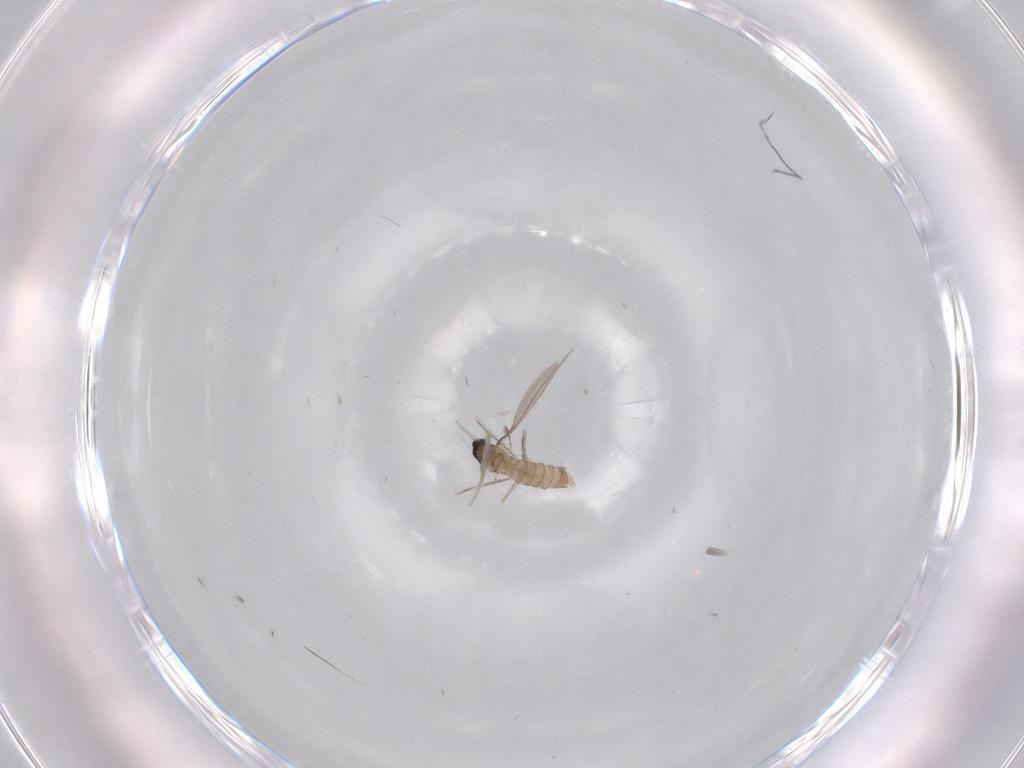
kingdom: Animalia
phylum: Arthropoda
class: Insecta
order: Diptera
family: Cecidomyiidae
